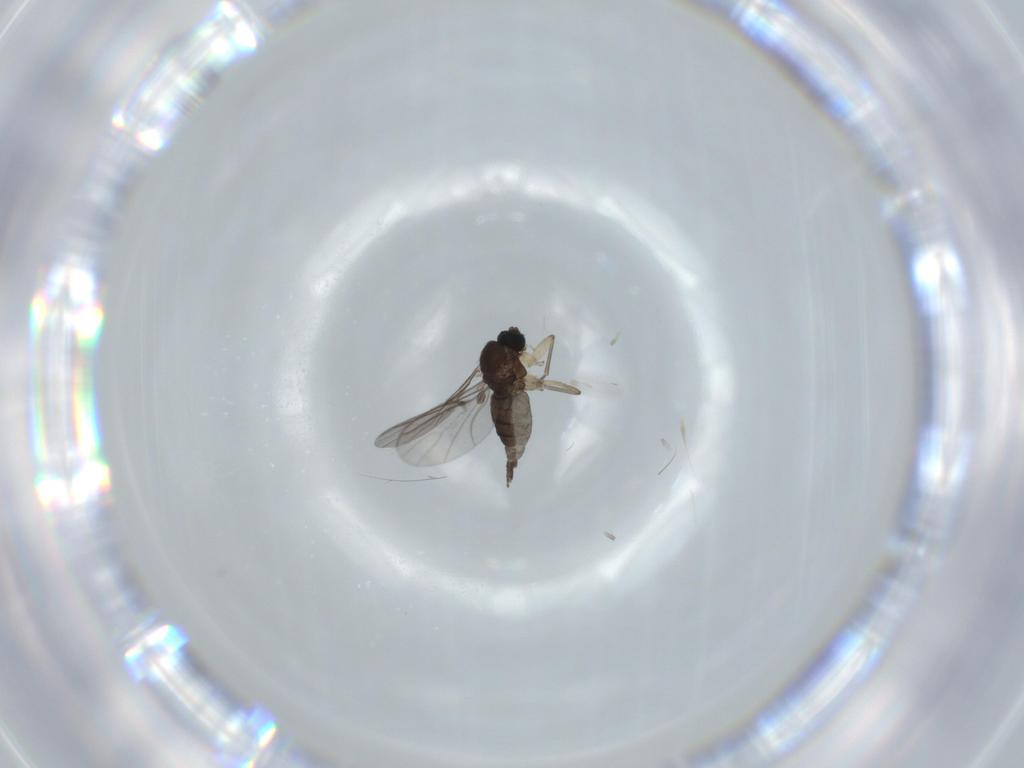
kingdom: Animalia
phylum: Arthropoda
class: Insecta
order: Diptera
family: Sciaridae
